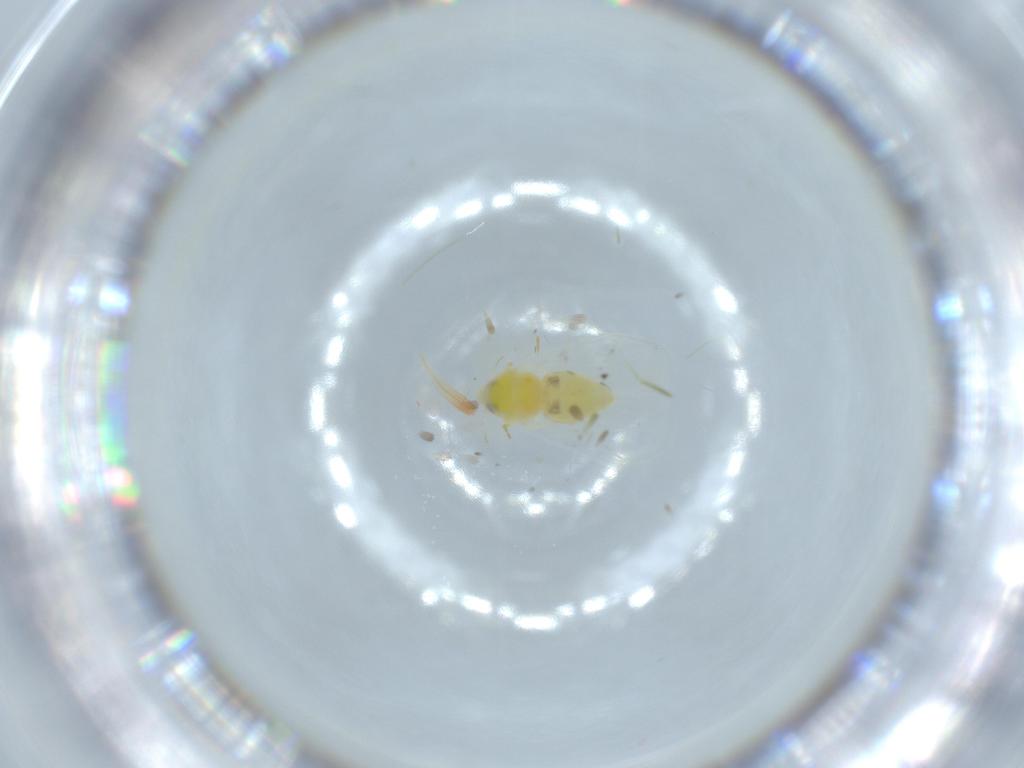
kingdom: Animalia
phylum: Arthropoda
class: Insecta
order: Hemiptera
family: Aleyrodidae
